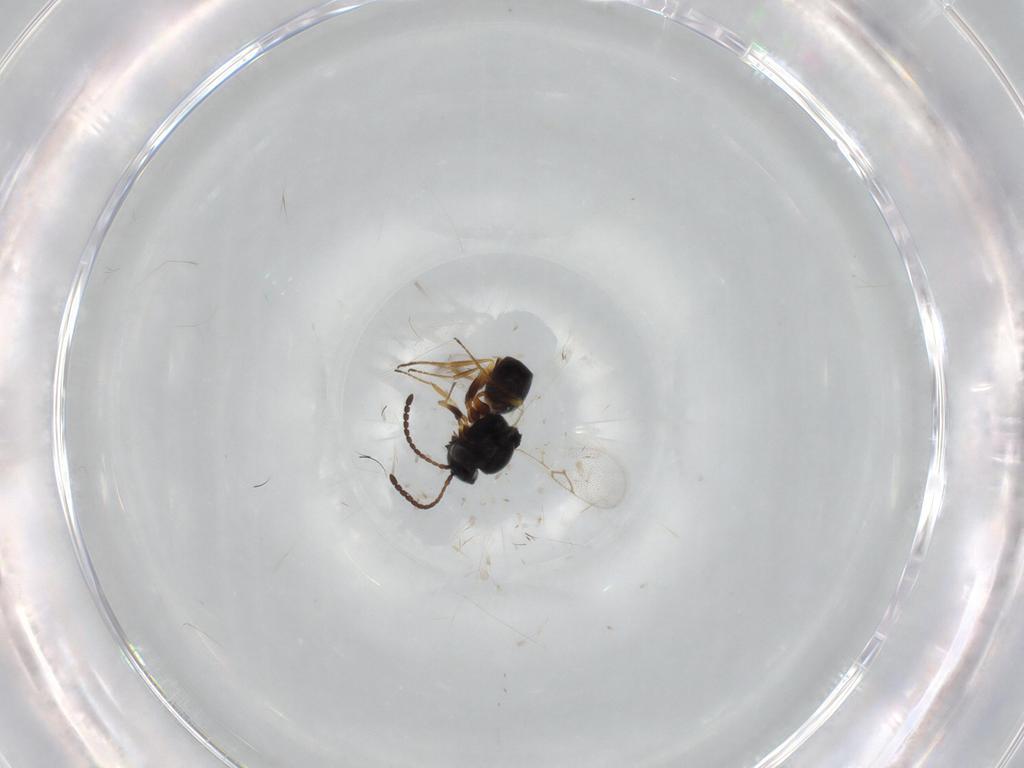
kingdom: Animalia
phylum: Arthropoda
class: Insecta
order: Hymenoptera
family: Figitidae
